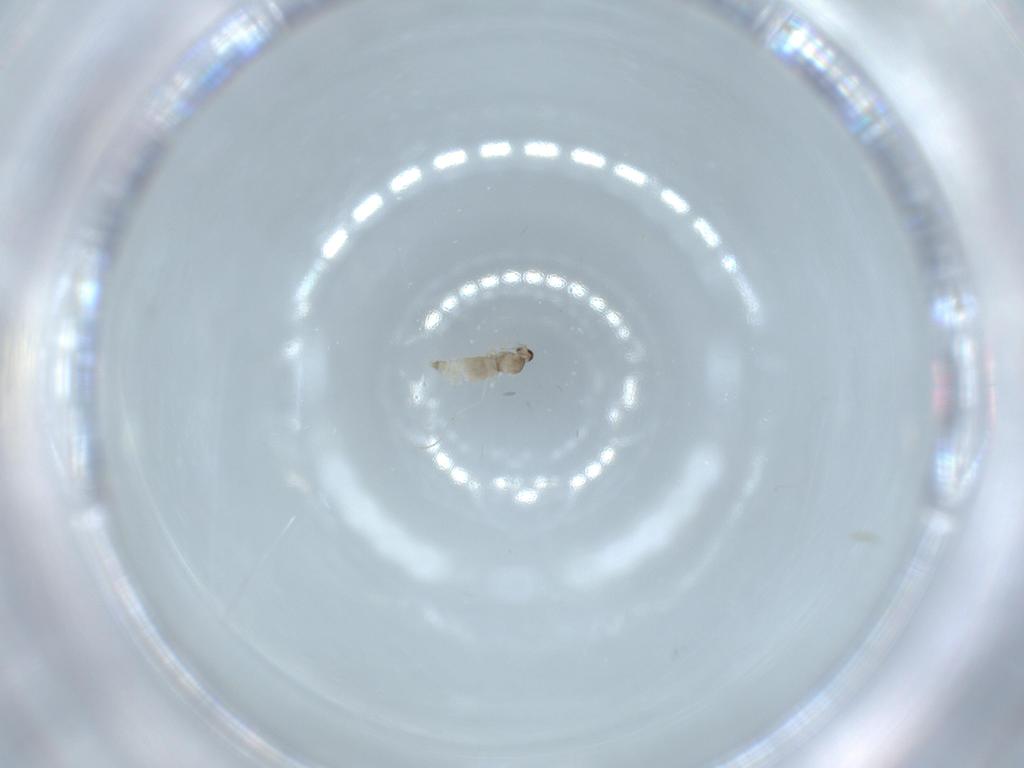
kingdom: Animalia
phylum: Arthropoda
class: Insecta
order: Diptera
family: Cecidomyiidae
